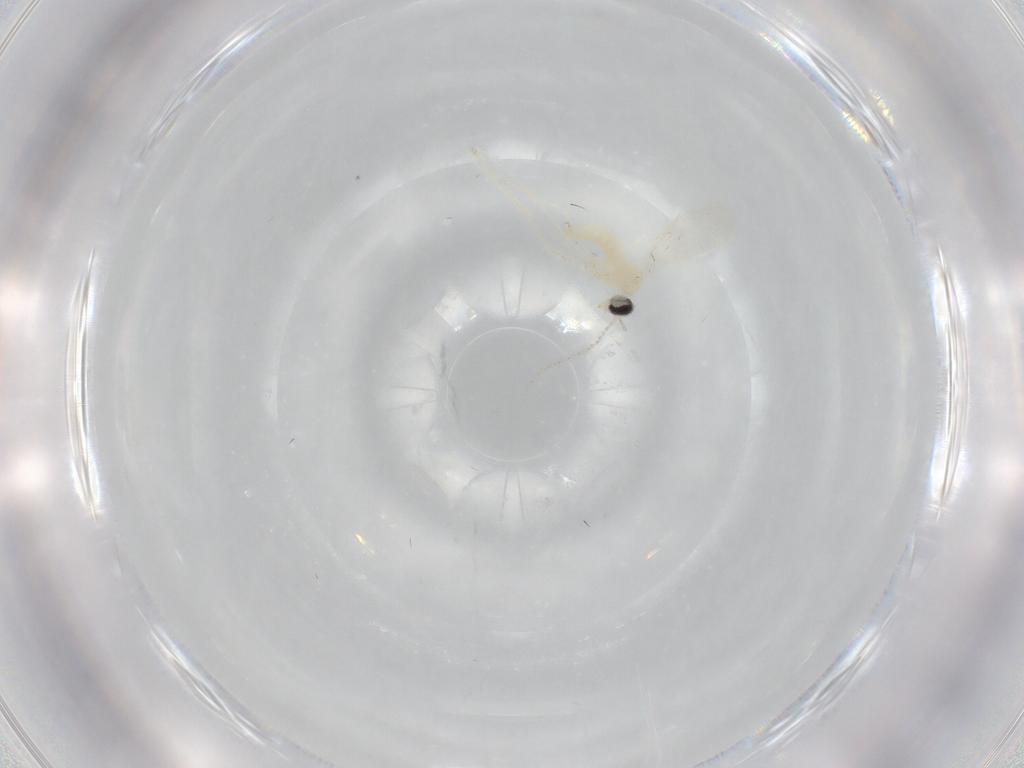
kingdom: Animalia
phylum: Arthropoda
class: Insecta
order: Diptera
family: Cecidomyiidae
